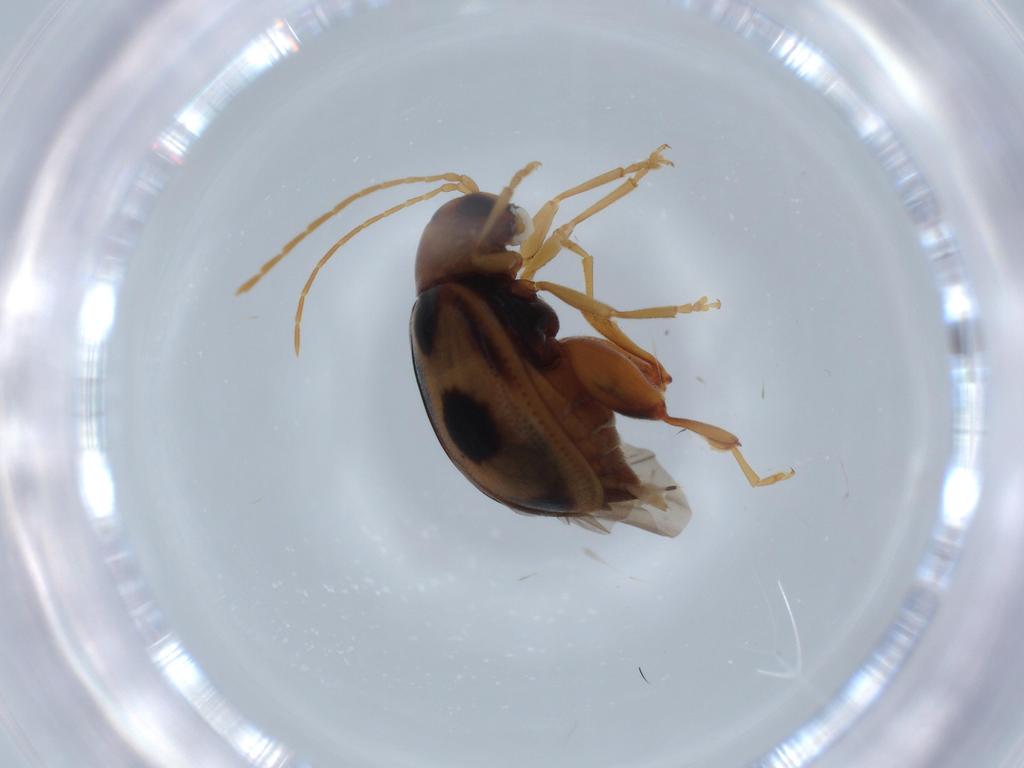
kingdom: Animalia
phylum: Arthropoda
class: Insecta
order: Coleoptera
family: Chrysomelidae
